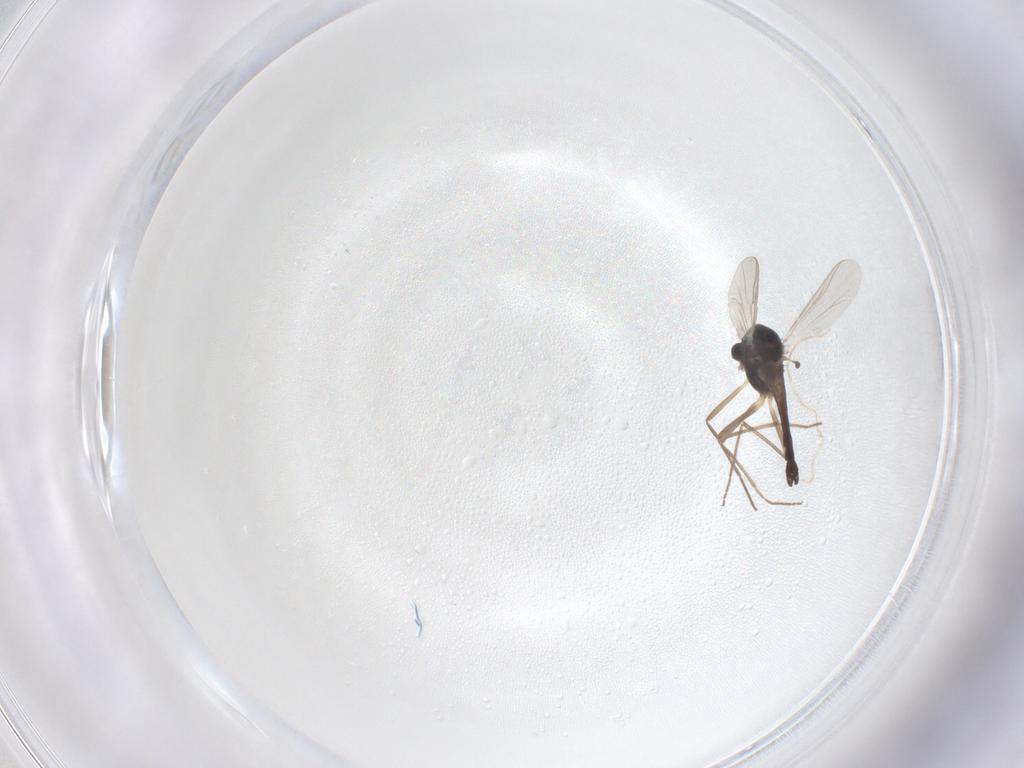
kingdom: Animalia
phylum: Arthropoda
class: Insecta
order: Diptera
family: Chironomidae
